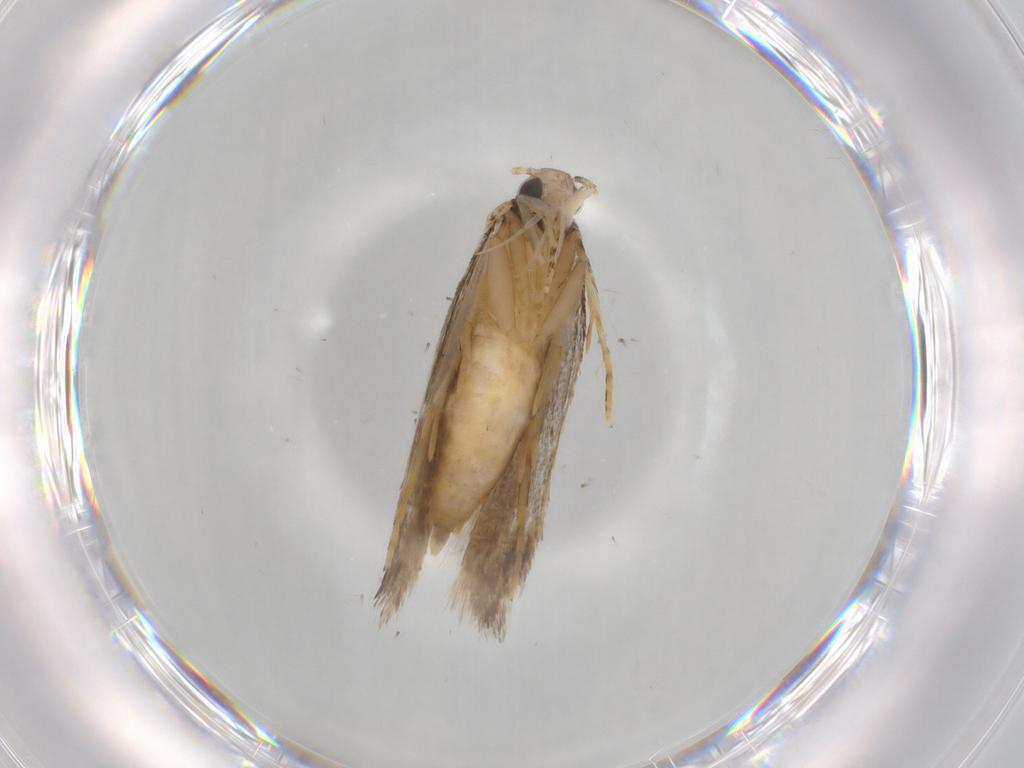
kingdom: Animalia
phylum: Arthropoda
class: Insecta
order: Lepidoptera
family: Autostichidae
